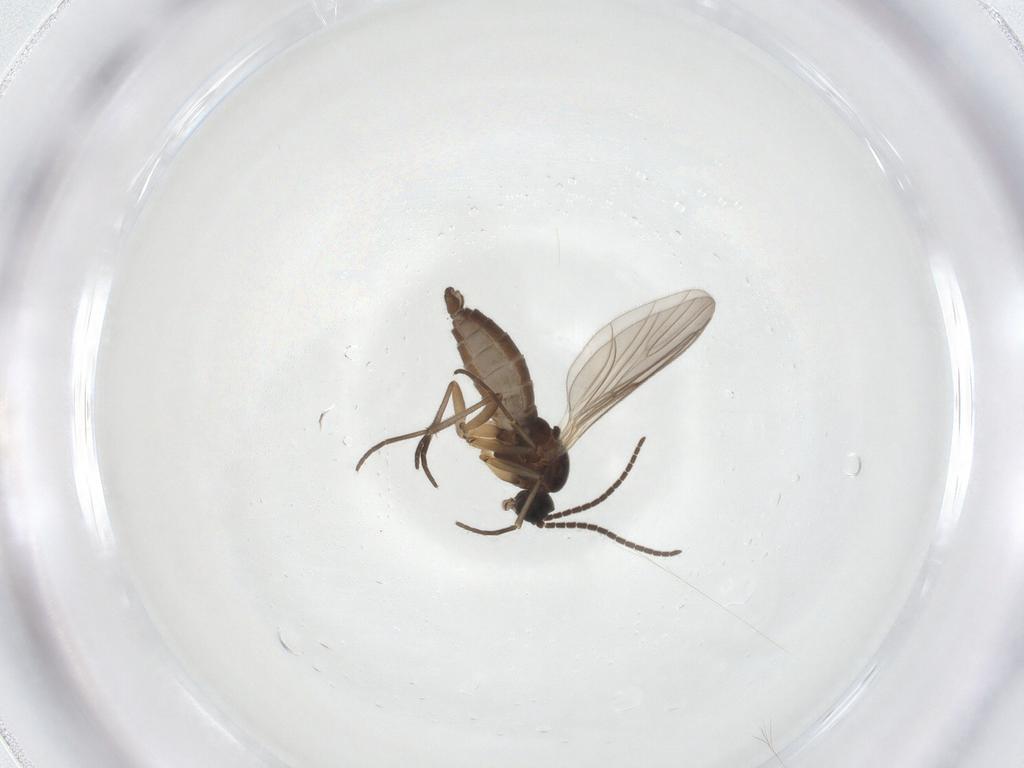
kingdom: Animalia
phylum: Arthropoda
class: Insecta
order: Diptera
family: Sciaridae
